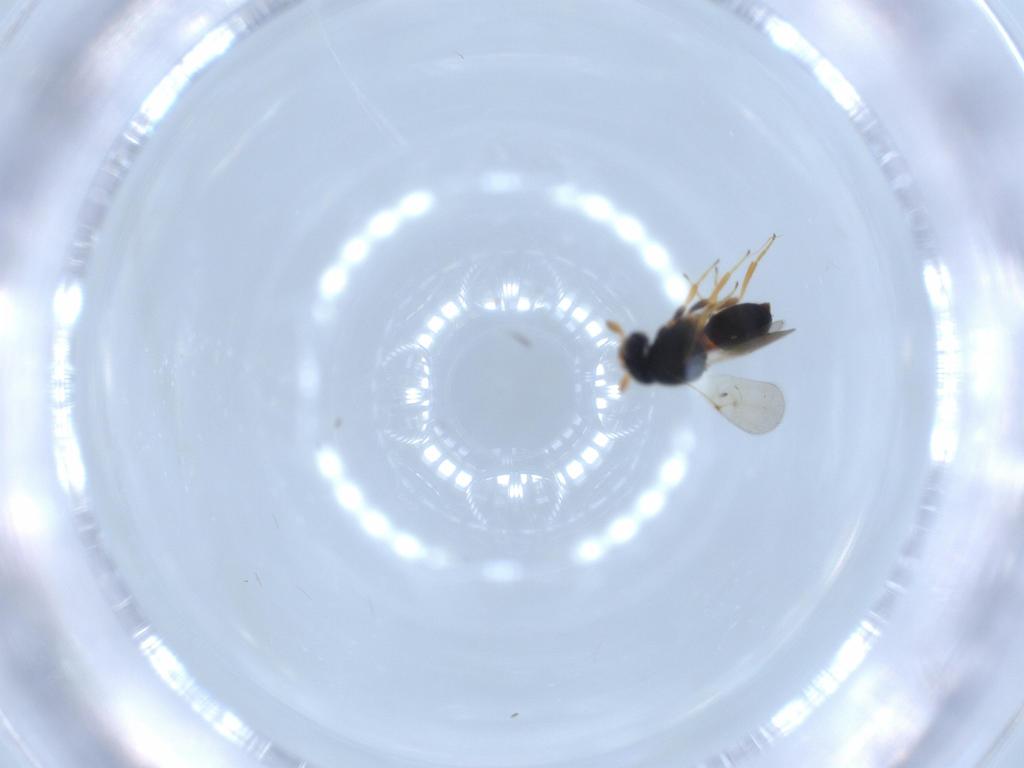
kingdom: Animalia
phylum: Arthropoda
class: Insecta
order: Hymenoptera
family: Scelionidae
